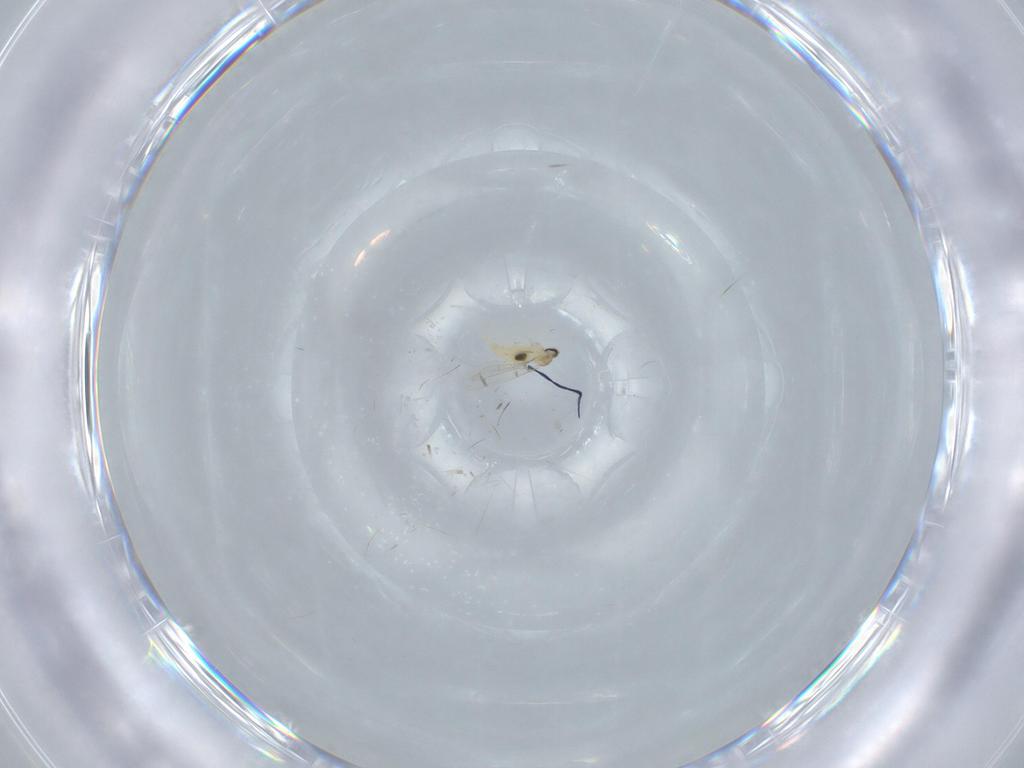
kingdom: Animalia
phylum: Arthropoda
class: Insecta
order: Diptera
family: Cecidomyiidae
